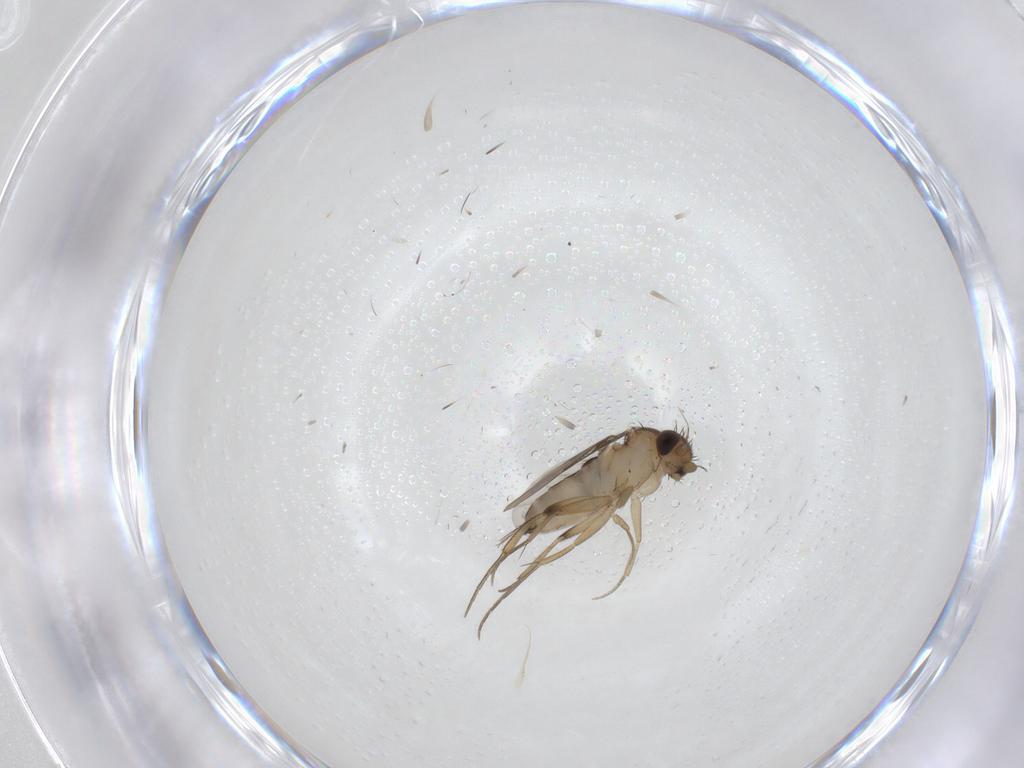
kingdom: Animalia
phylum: Arthropoda
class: Insecta
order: Diptera
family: Phoridae
